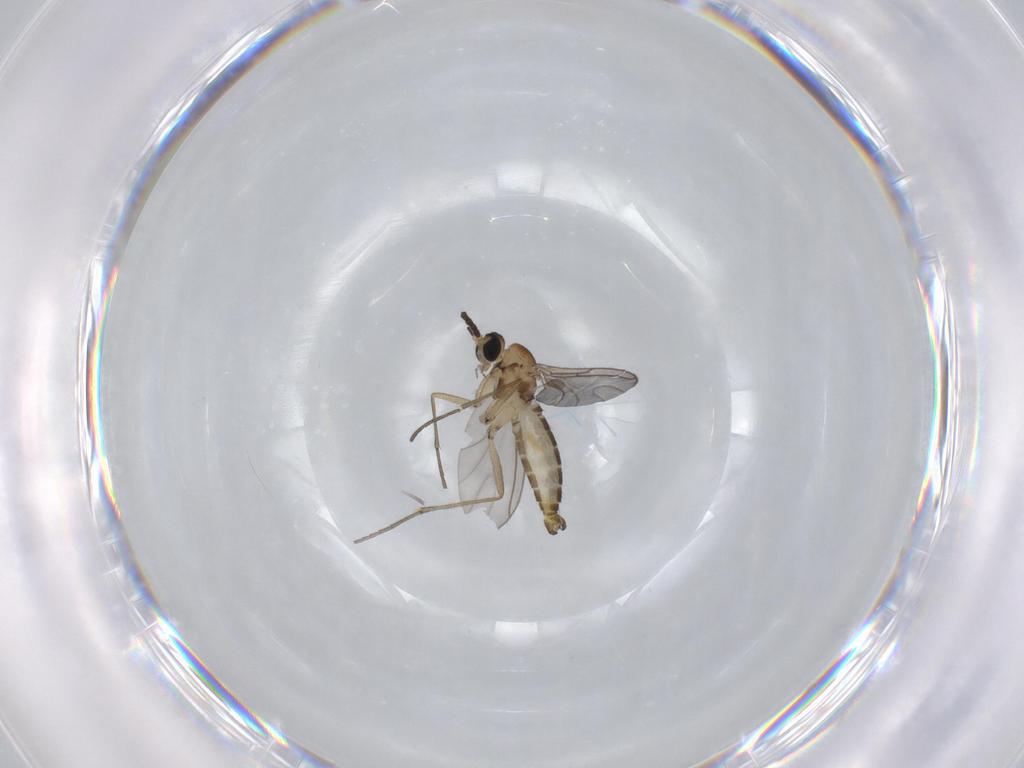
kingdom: Animalia
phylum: Arthropoda
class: Insecta
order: Diptera
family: Sciaridae
